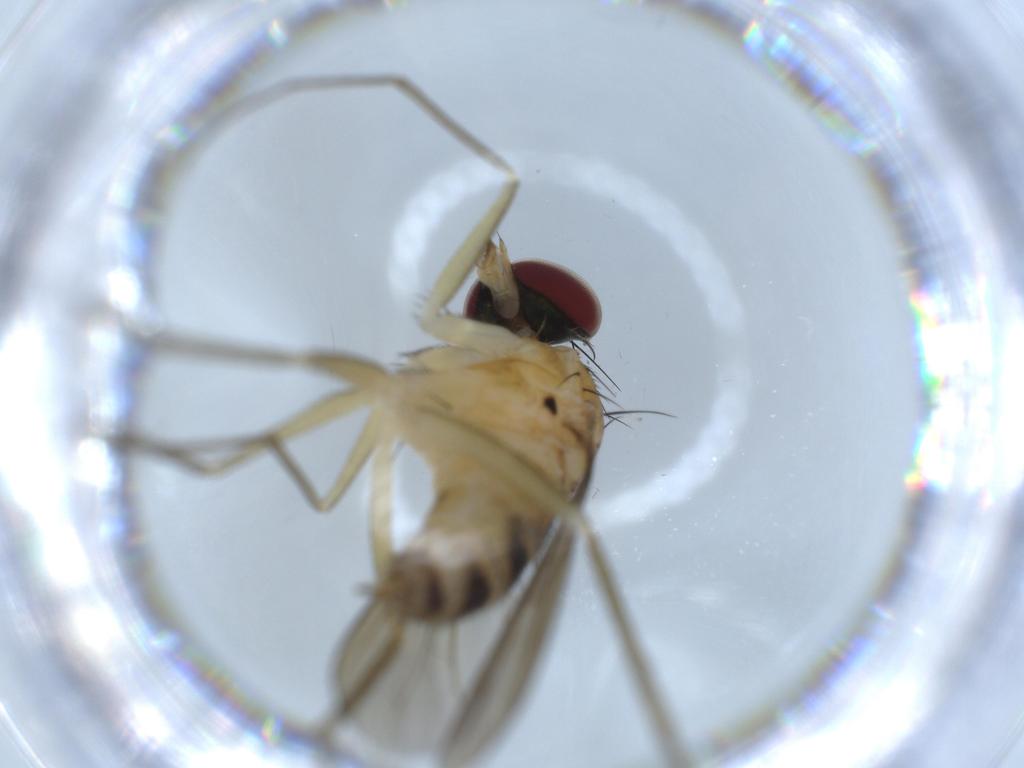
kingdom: Animalia
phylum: Arthropoda
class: Insecta
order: Diptera
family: Dolichopodidae
